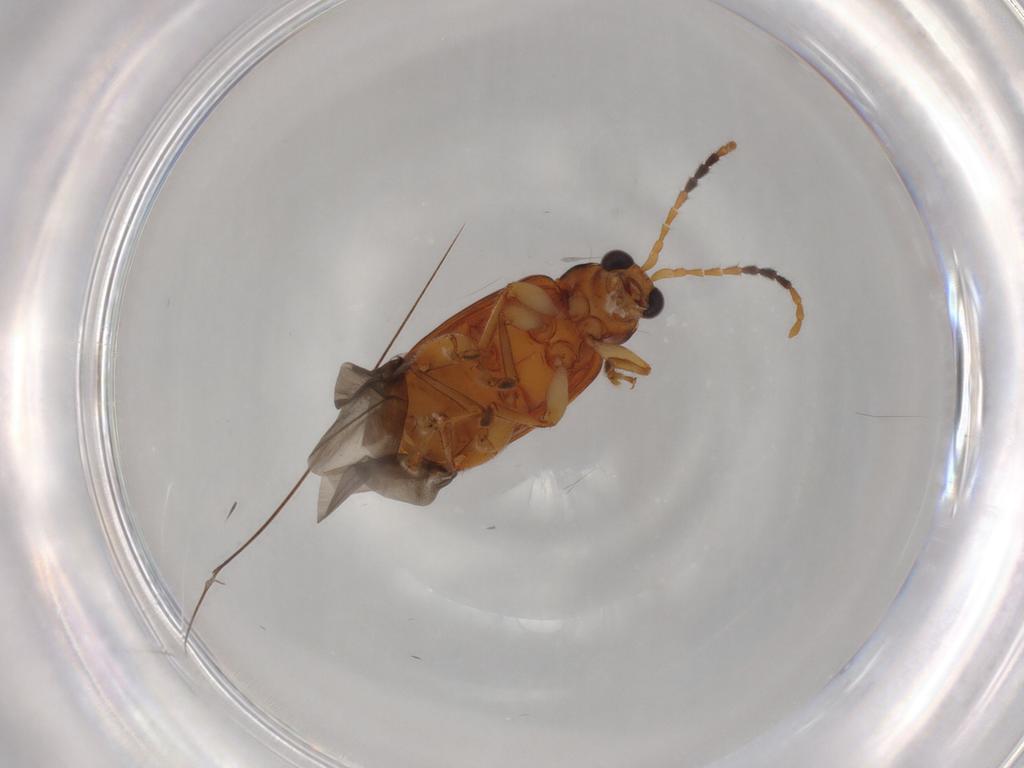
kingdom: Animalia
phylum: Arthropoda
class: Insecta
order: Coleoptera
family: Chrysomelidae
